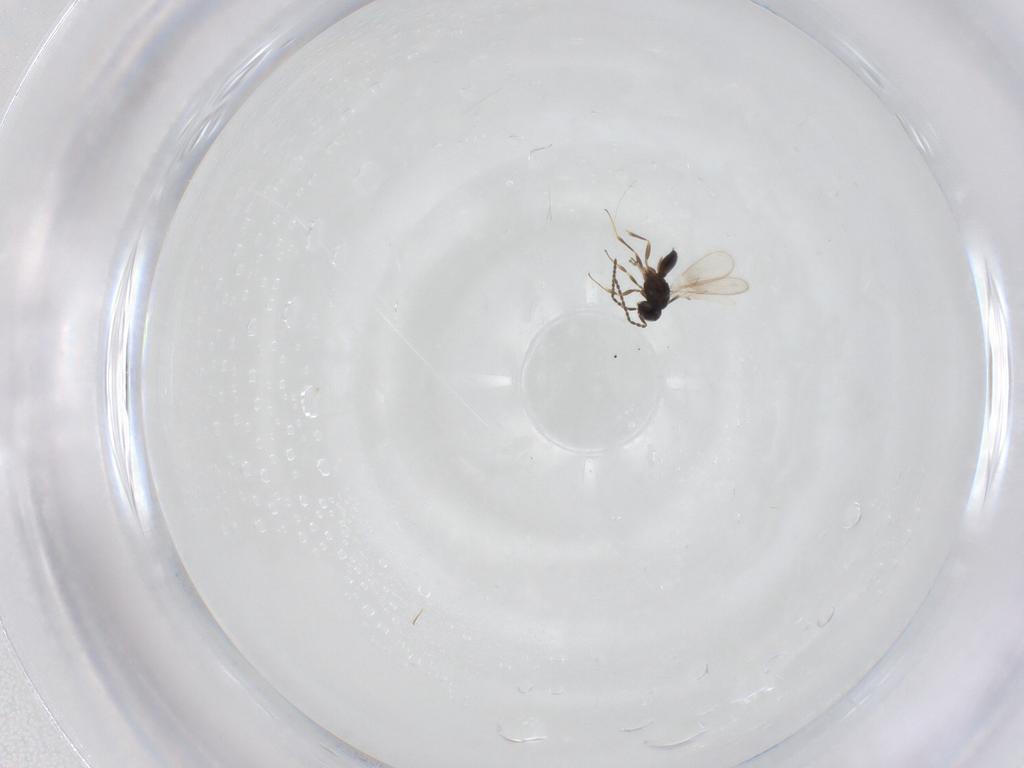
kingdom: Animalia
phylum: Arthropoda
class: Insecta
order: Hymenoptera
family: Scelionidae
